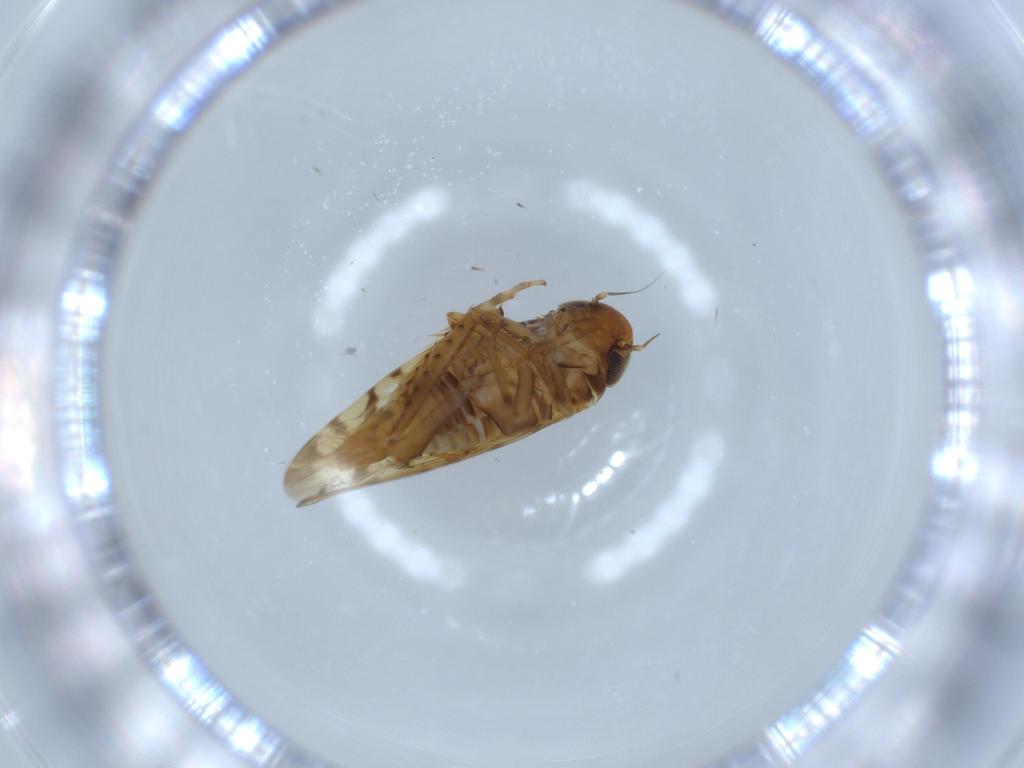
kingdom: Animalia
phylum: Arthropoda
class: Insecta
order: Hemiptera
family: Cicadellidae
